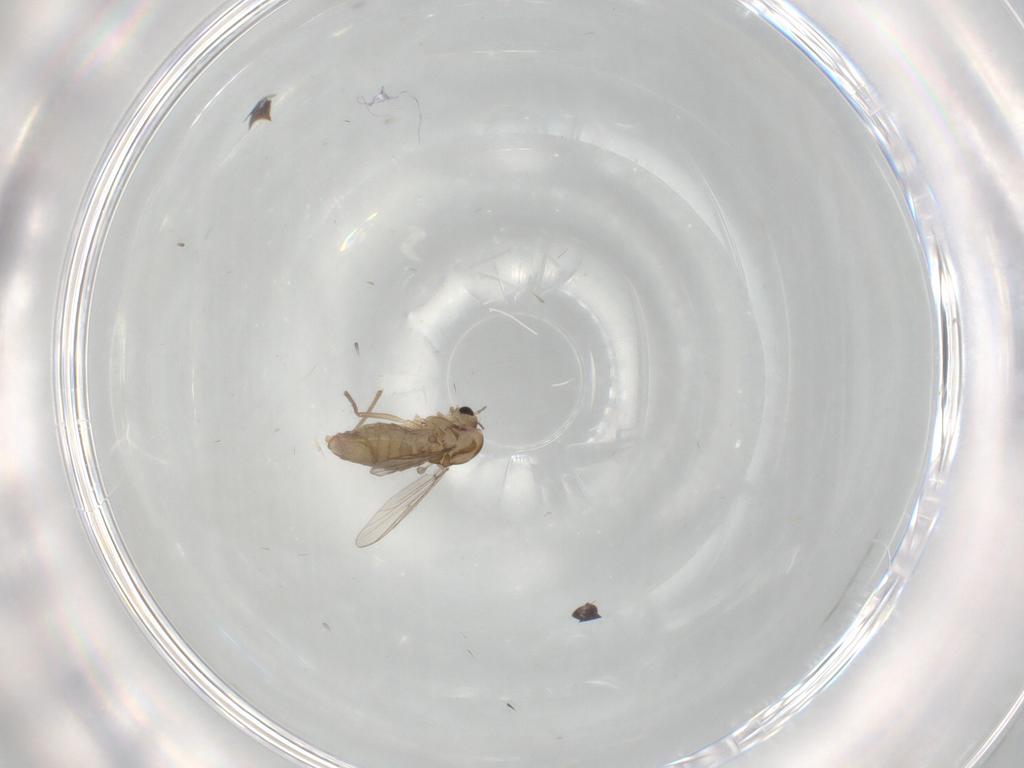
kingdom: Animalia
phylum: Arthropoda
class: Insecta
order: Diptera
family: Chironomidae
